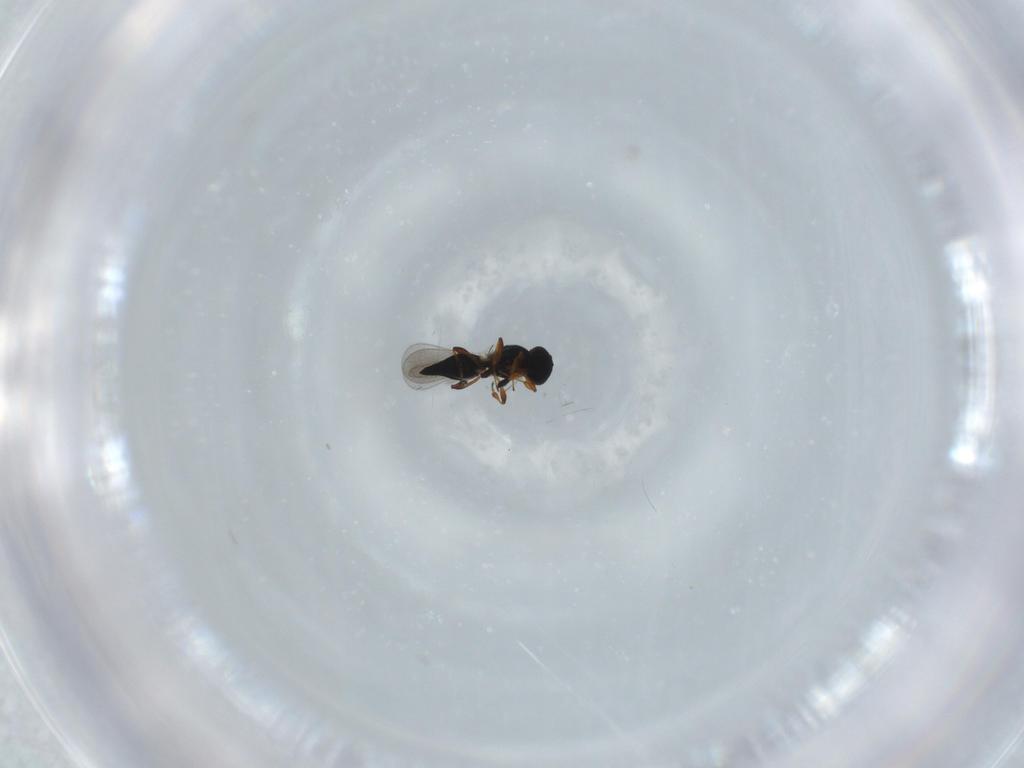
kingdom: Animalia
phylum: Arthropoda
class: Insecta
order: Hymenoptera
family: Platygastridae
